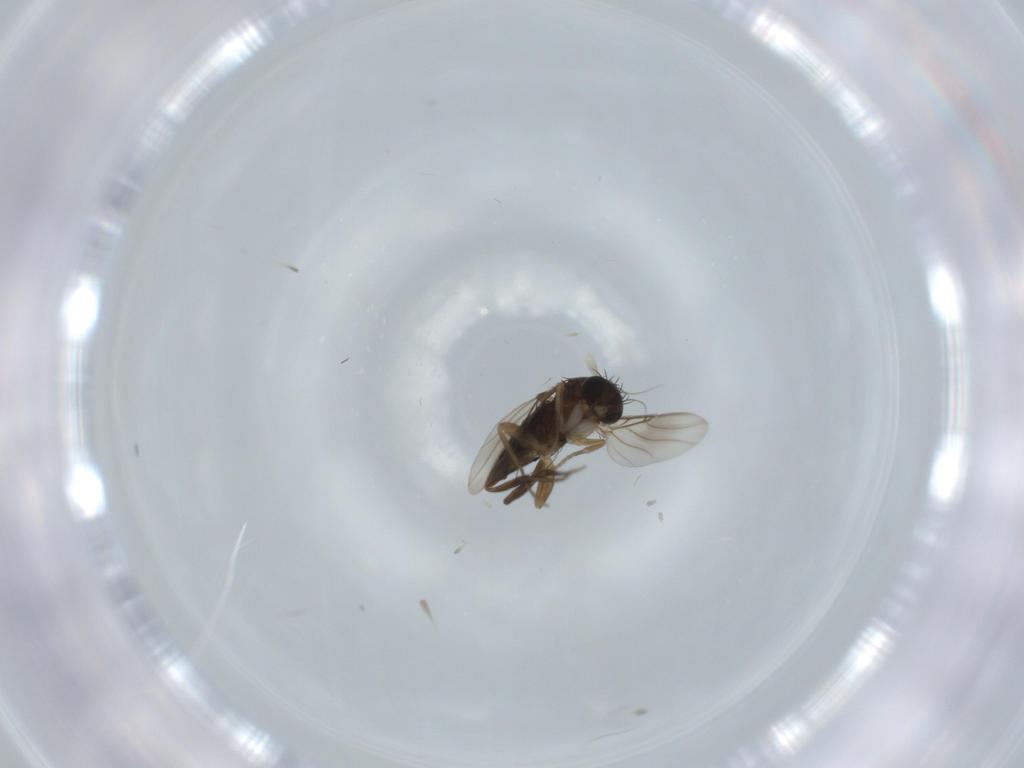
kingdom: Animalia
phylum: Arthropoda
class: Insecta
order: Diptera
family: Phoridae
